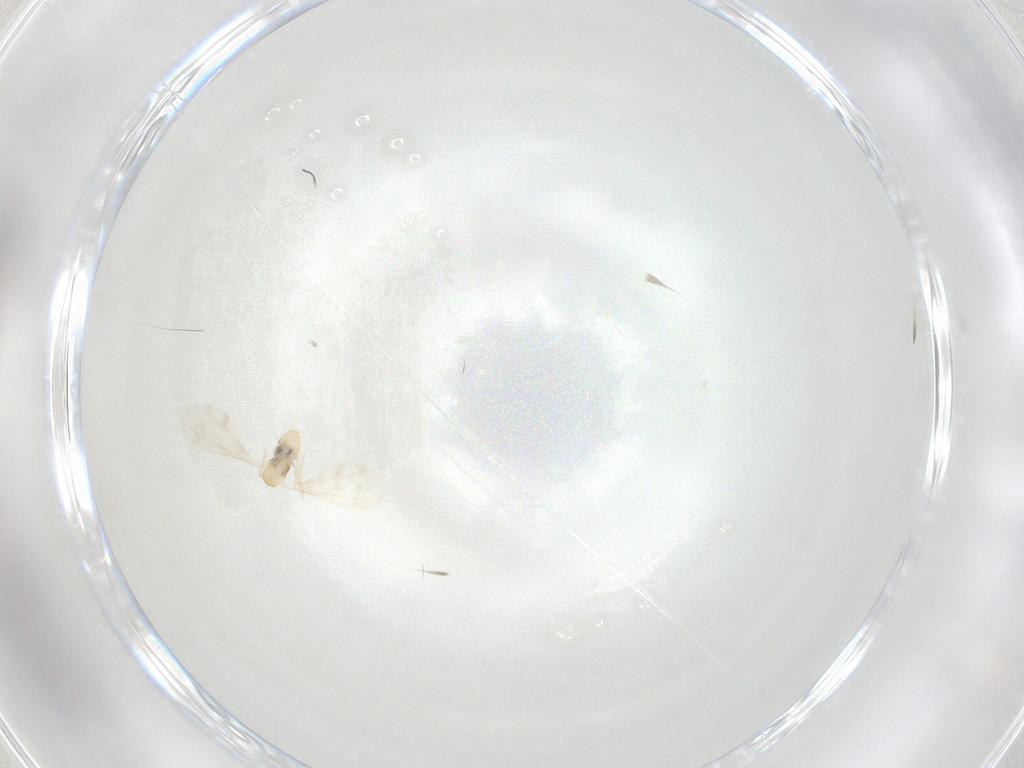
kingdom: Animalia
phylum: Arthropoda
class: Insecta
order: Diptera
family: Cecidomyiidae
